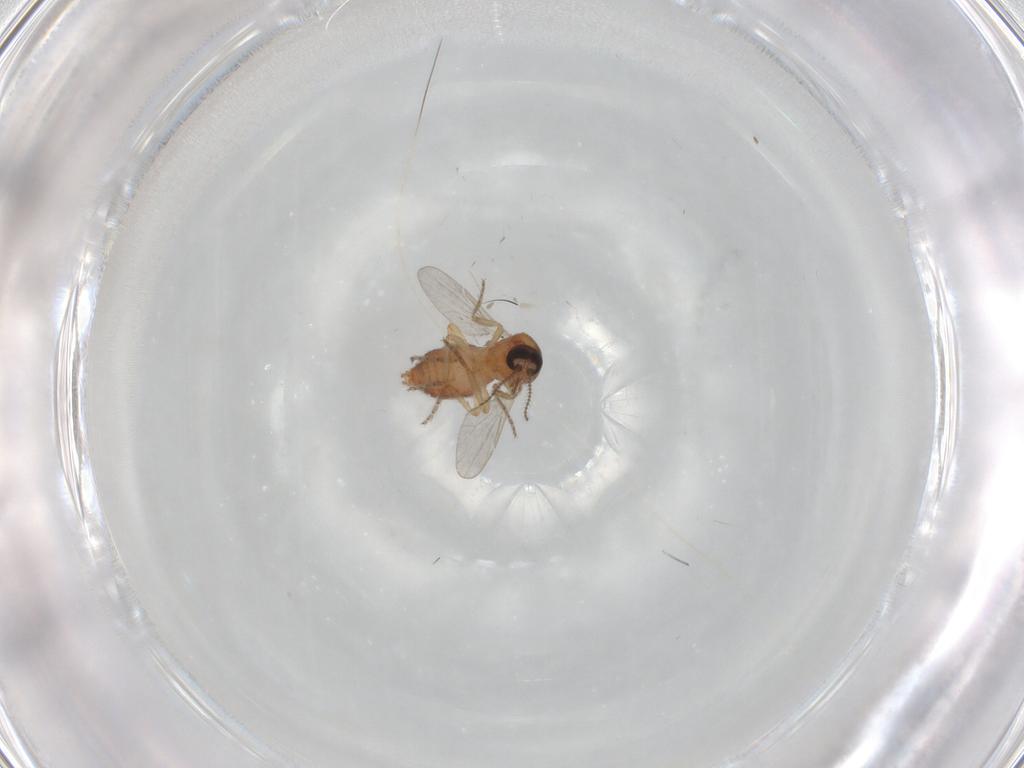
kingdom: Animalia
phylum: Arthropoda
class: Insecta
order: Diptera
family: Ceratopogonidae
